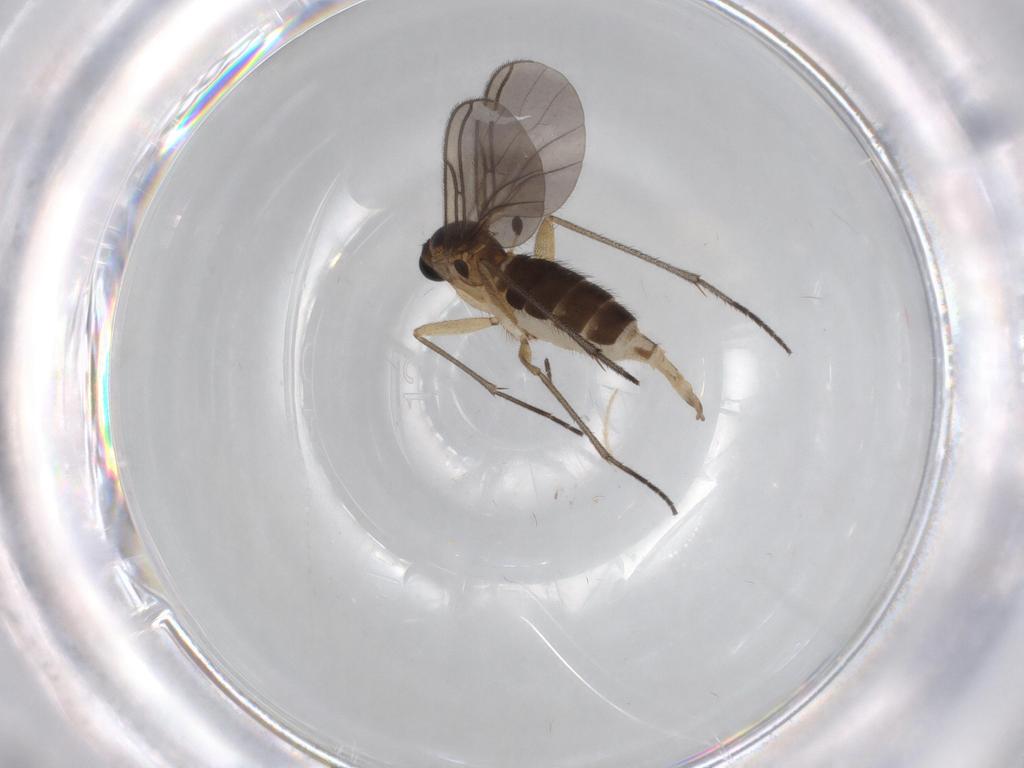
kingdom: Animalia
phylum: Arthropoda
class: Insecta
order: Diptera
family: Sciaridae
